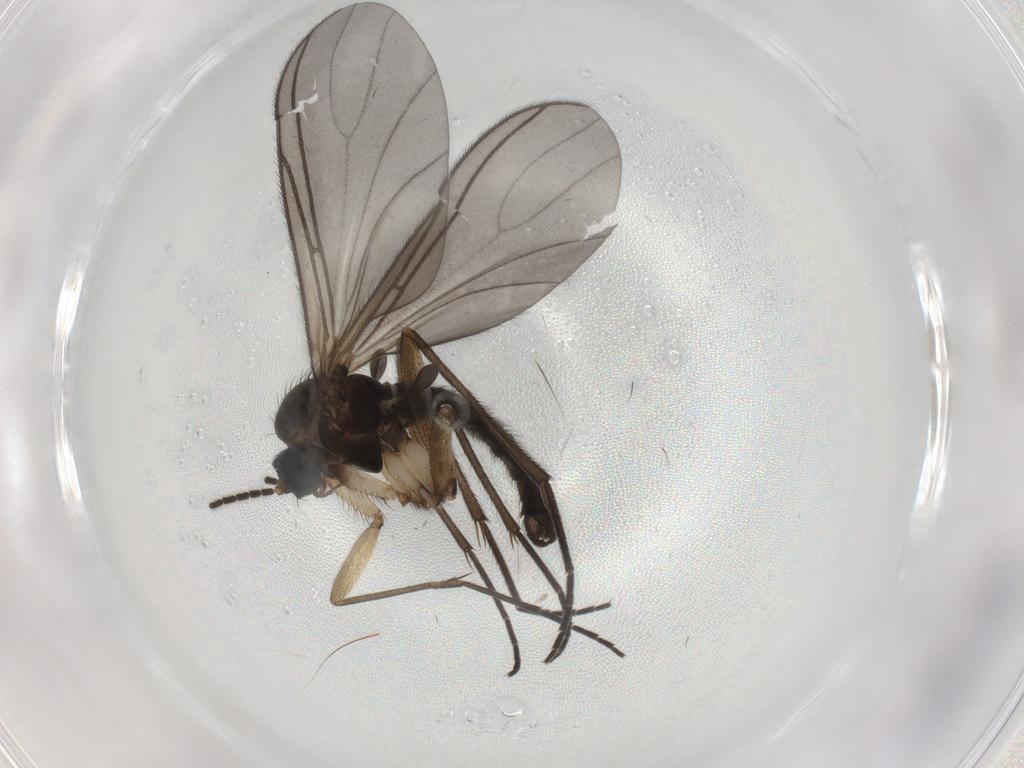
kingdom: Animalia
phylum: Arthropoda
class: Insecta
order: Diptera
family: Sciaridae
